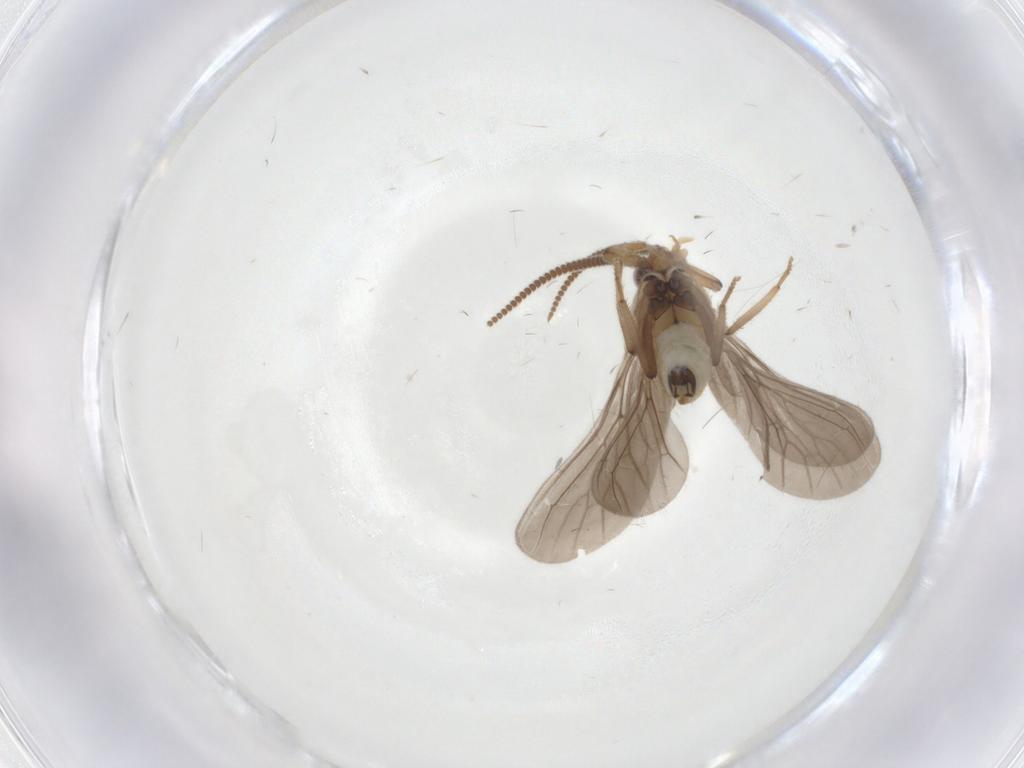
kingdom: Animalia
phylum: Arthropoda
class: Insecta
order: Neuroptera
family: Coniopterygidae
